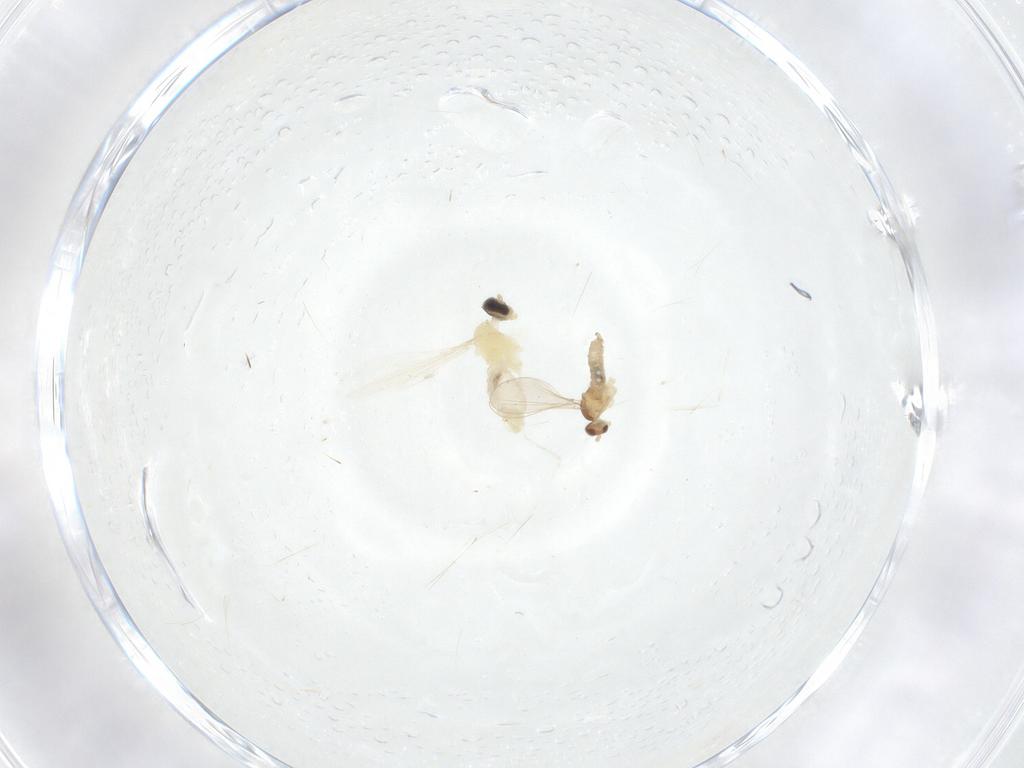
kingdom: Animalia
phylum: Arthropoda
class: Insecta
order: Diptera
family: Cecidomyiidae
